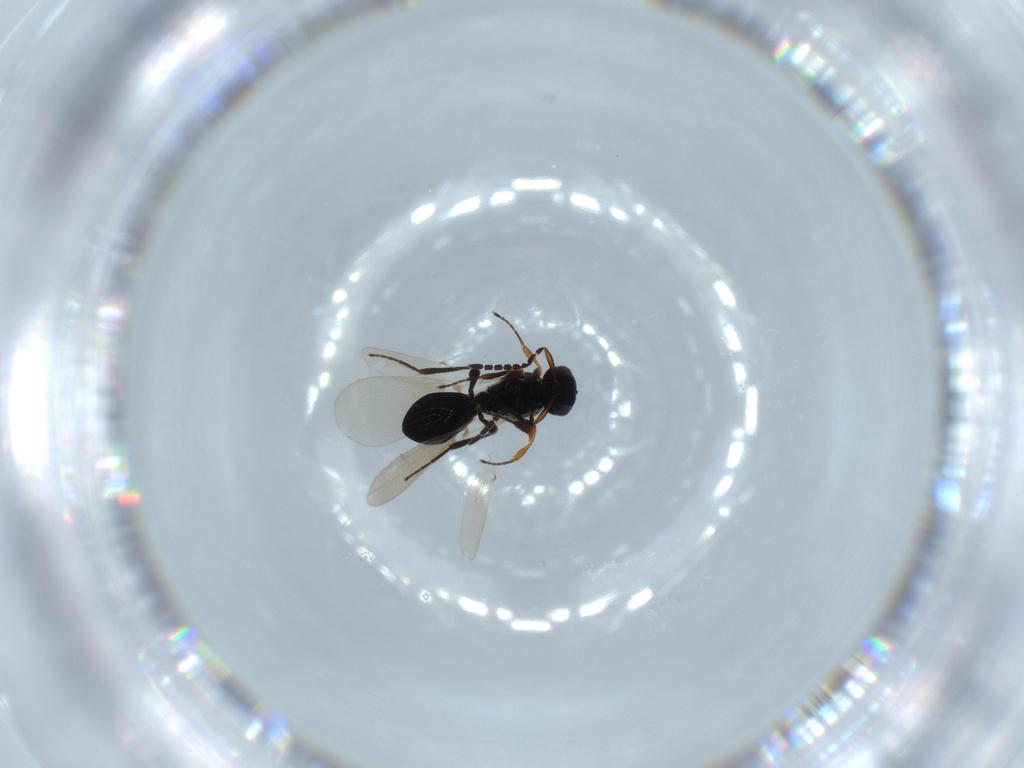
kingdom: Animalia
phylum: Arthropoda
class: Insecta
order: Hymenoptera
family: Platygastridae
